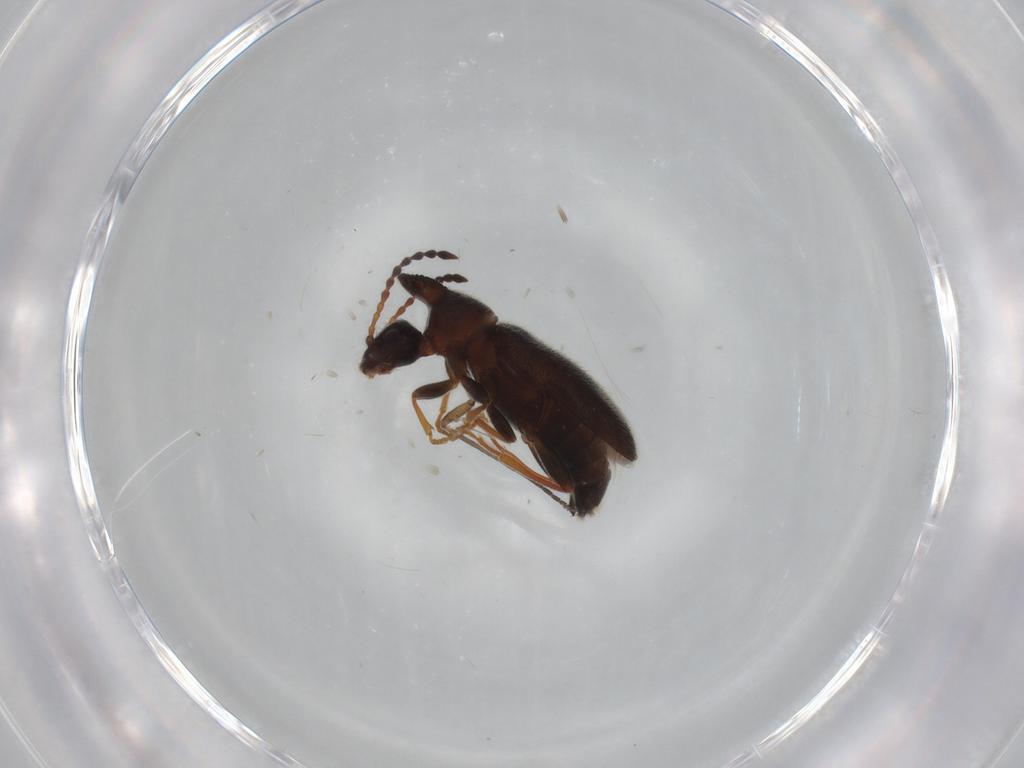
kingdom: Animalia
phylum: Arthropoda
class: Insecta
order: Coleoptera
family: Anthicidae
